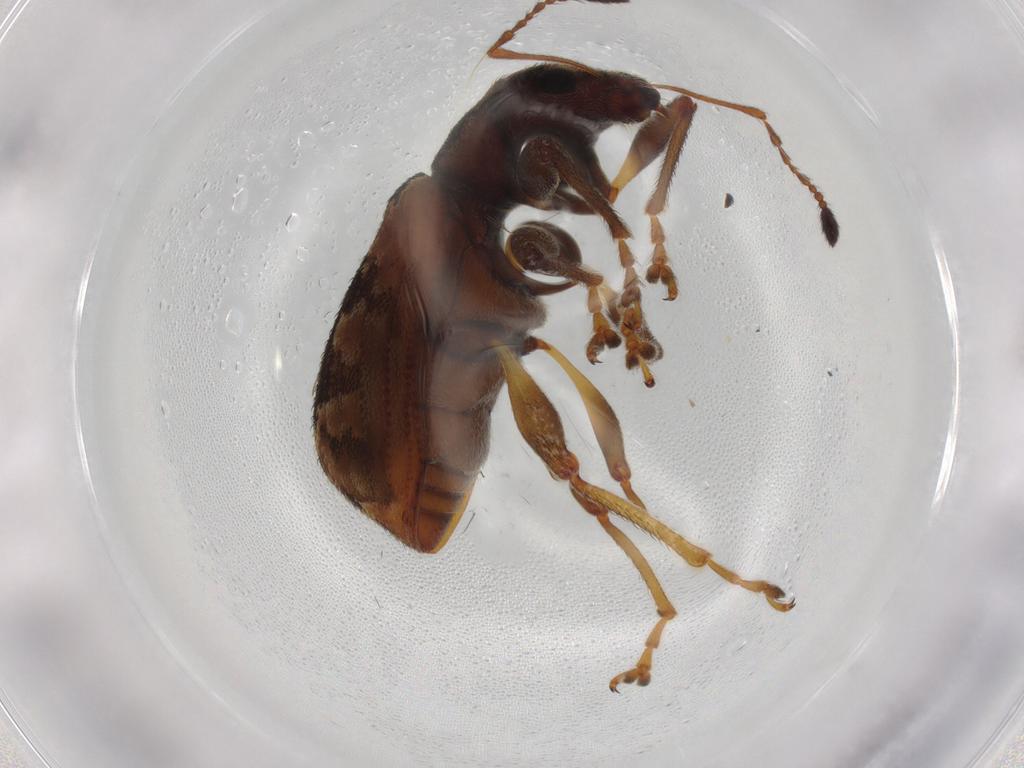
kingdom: Animalia
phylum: Arthropoda
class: Insecta
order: Coleoptera
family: Curculionidae
